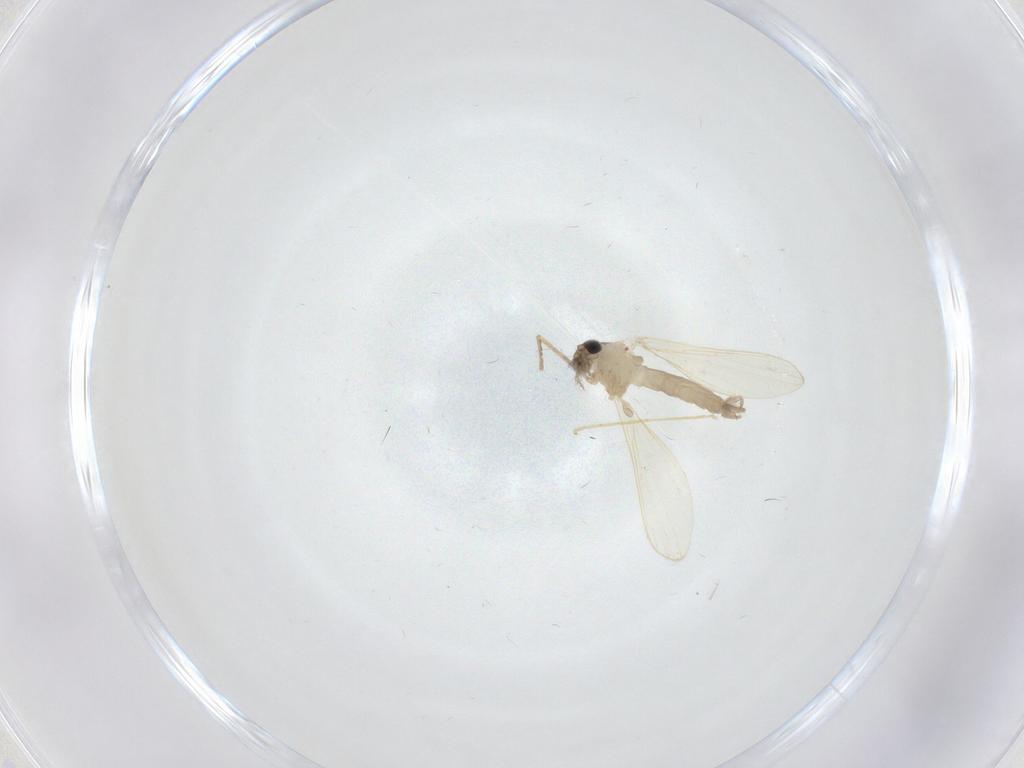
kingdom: Animalia
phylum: Arthropoda
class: Insecta
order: Diptera
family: Psychodidae
